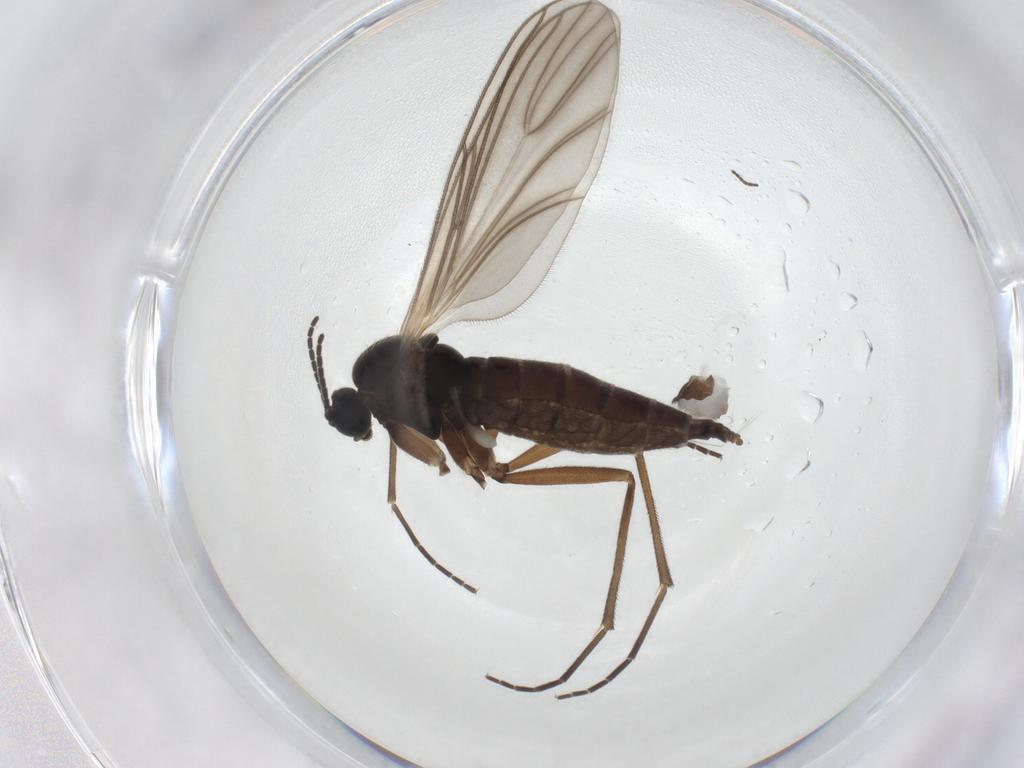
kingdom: Animalia
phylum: Arthropoda
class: Insecta
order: Diptera
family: Sciaridae
